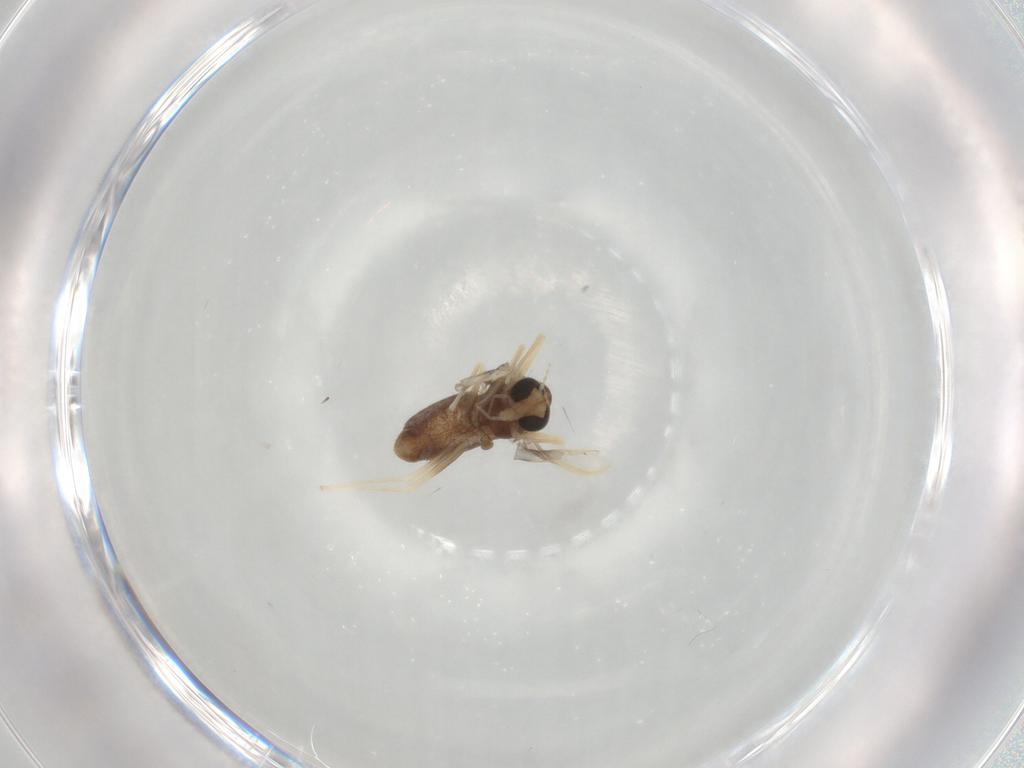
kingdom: Animalia
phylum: Arthropoda
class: Insecta
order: Diptera
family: Chironomidae
